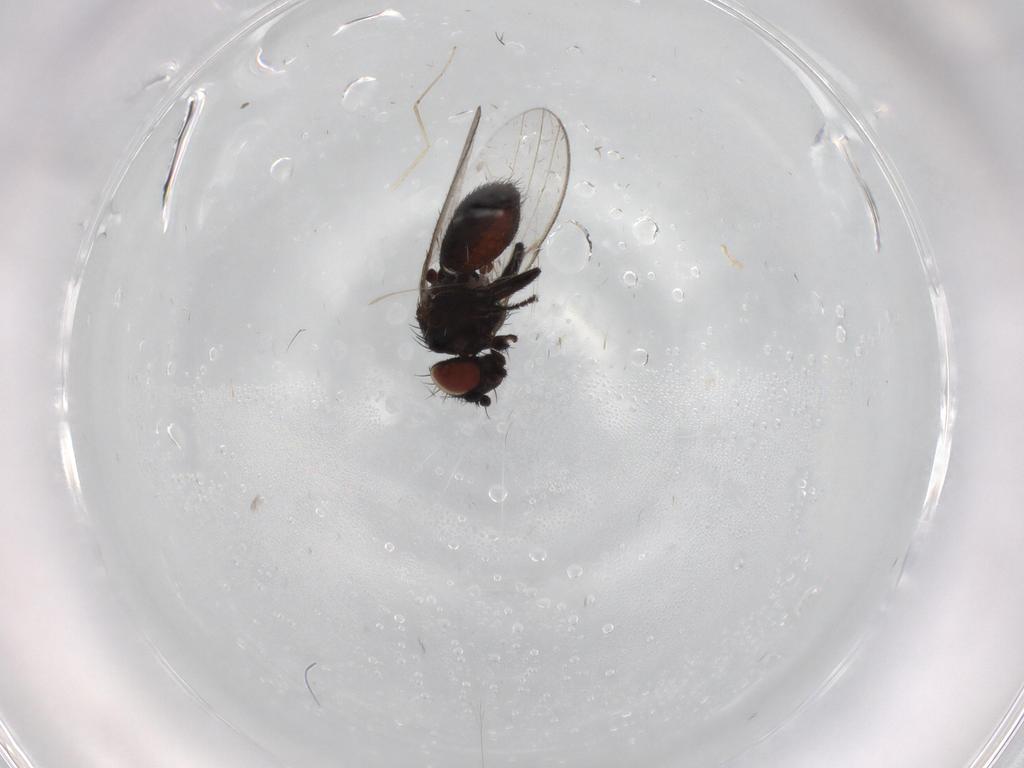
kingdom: Animalia
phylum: Arthropoda
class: Insecta
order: Diptera
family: Milichiidae
